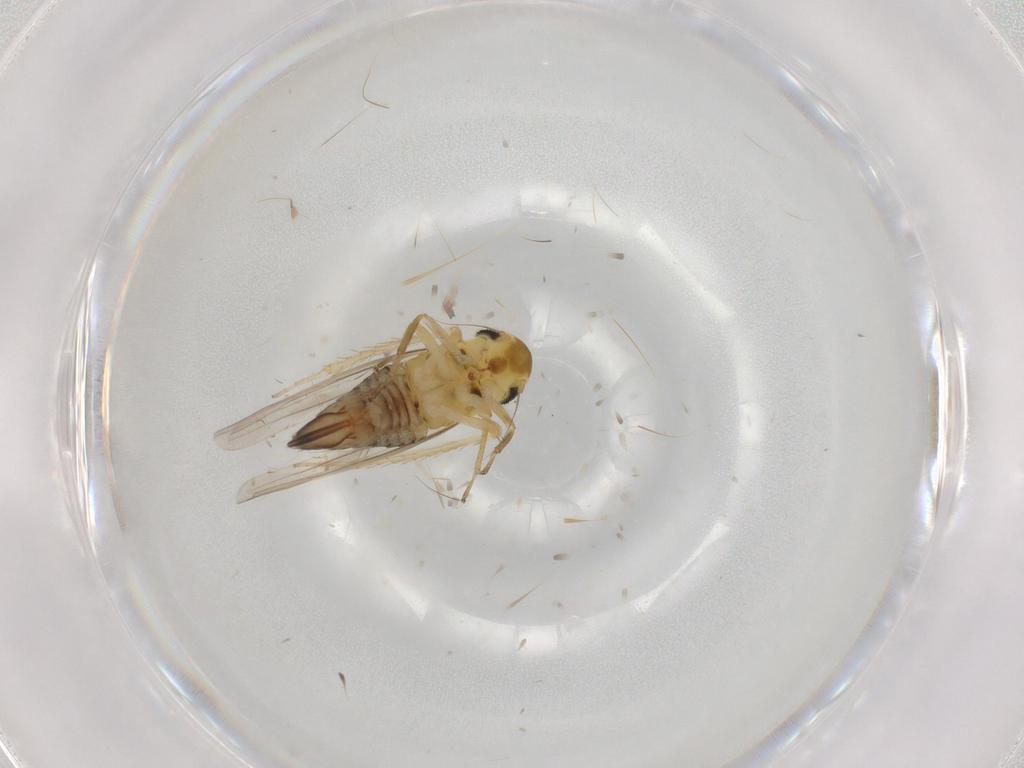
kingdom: Animalia
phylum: Arthropoda
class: Insecta
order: Hemiptera
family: Cicadellidae
